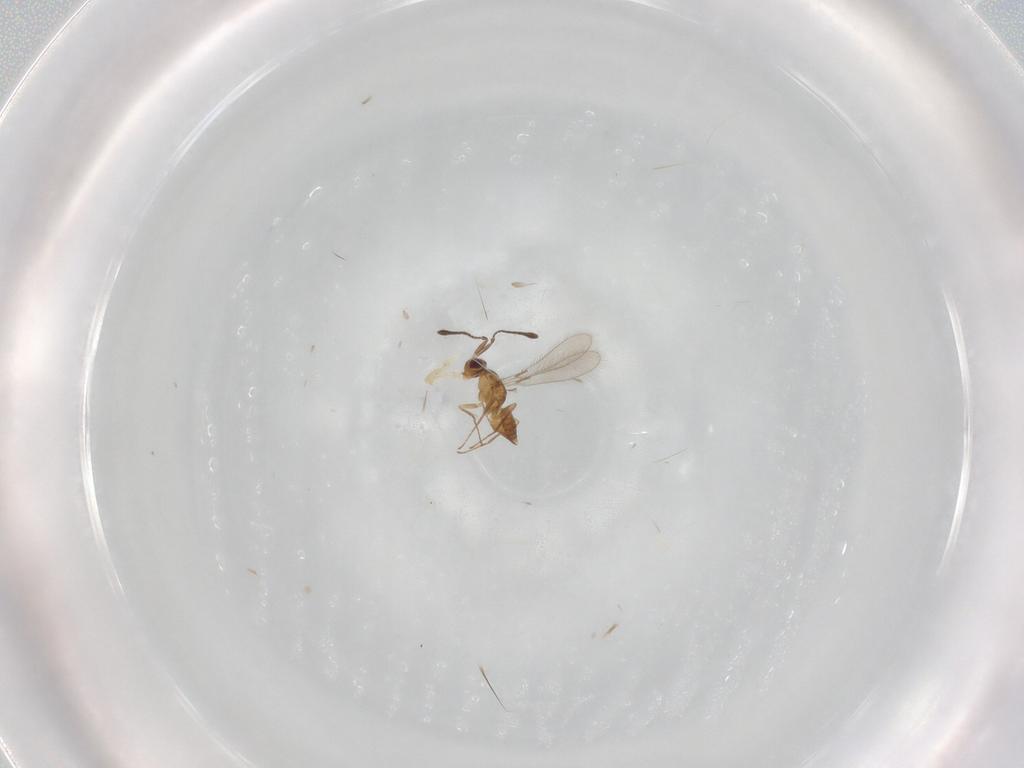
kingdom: Animalia
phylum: Arthropoda
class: Insecta
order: Hymenoptera
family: Mymaridae
